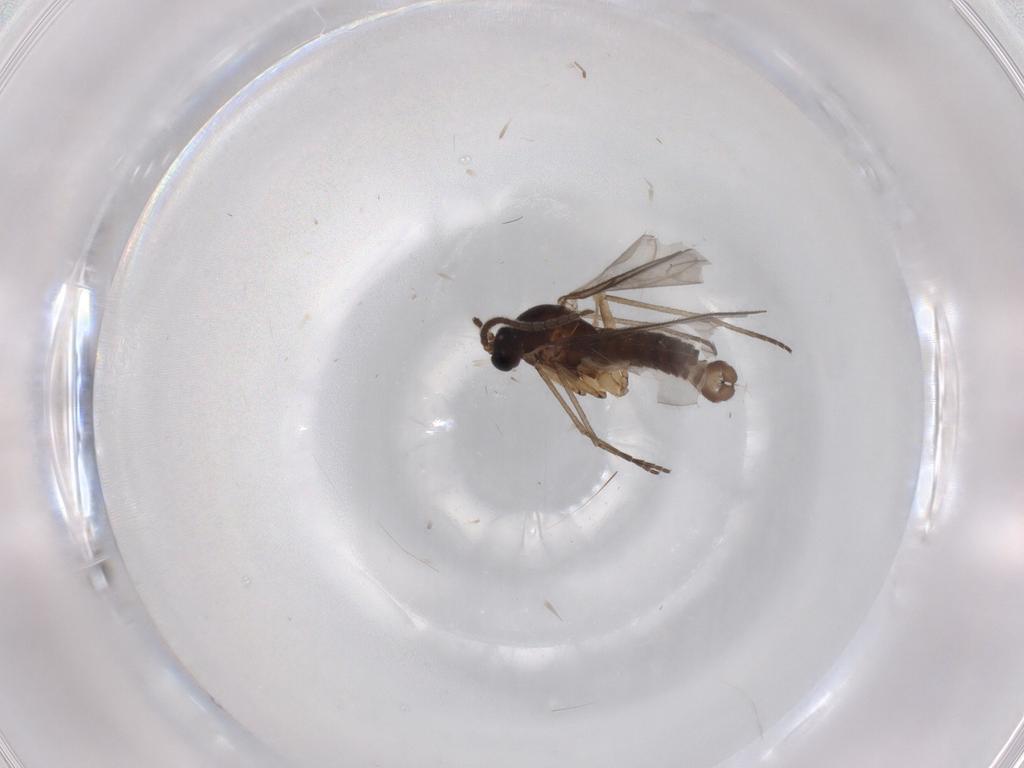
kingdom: Animalia
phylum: Arthropoda
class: Insecta
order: Diptera
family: Sciaridae
